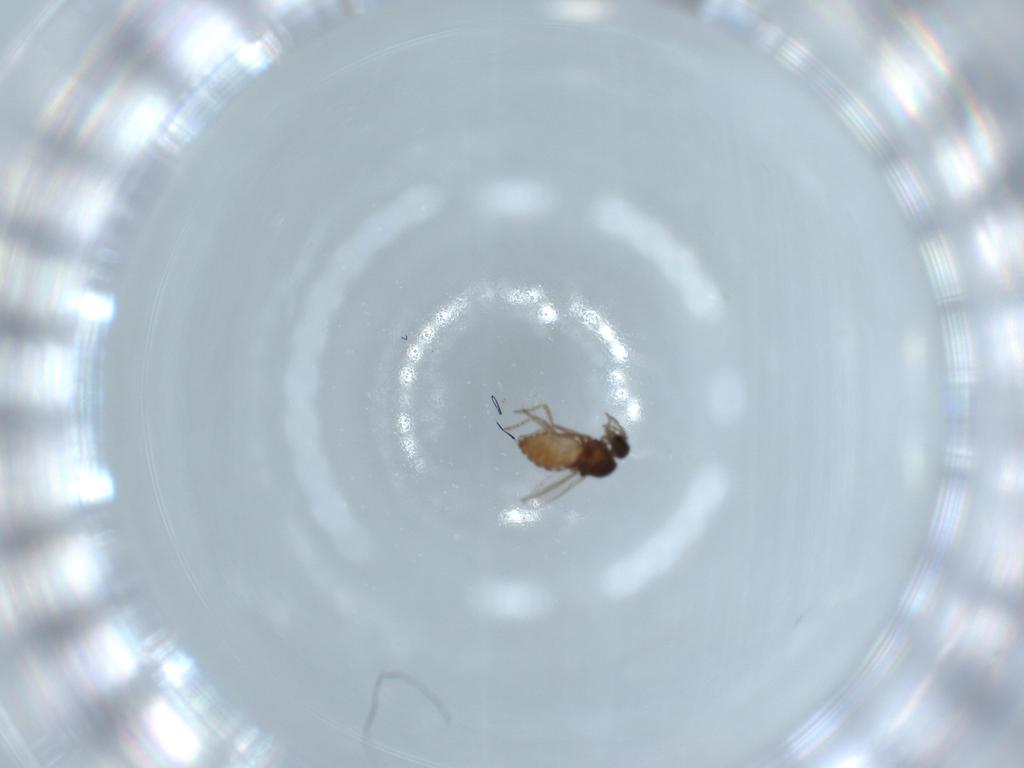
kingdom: Animalia
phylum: Arthropoda
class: Insecta
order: Diptera
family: Ceratopogonidae
